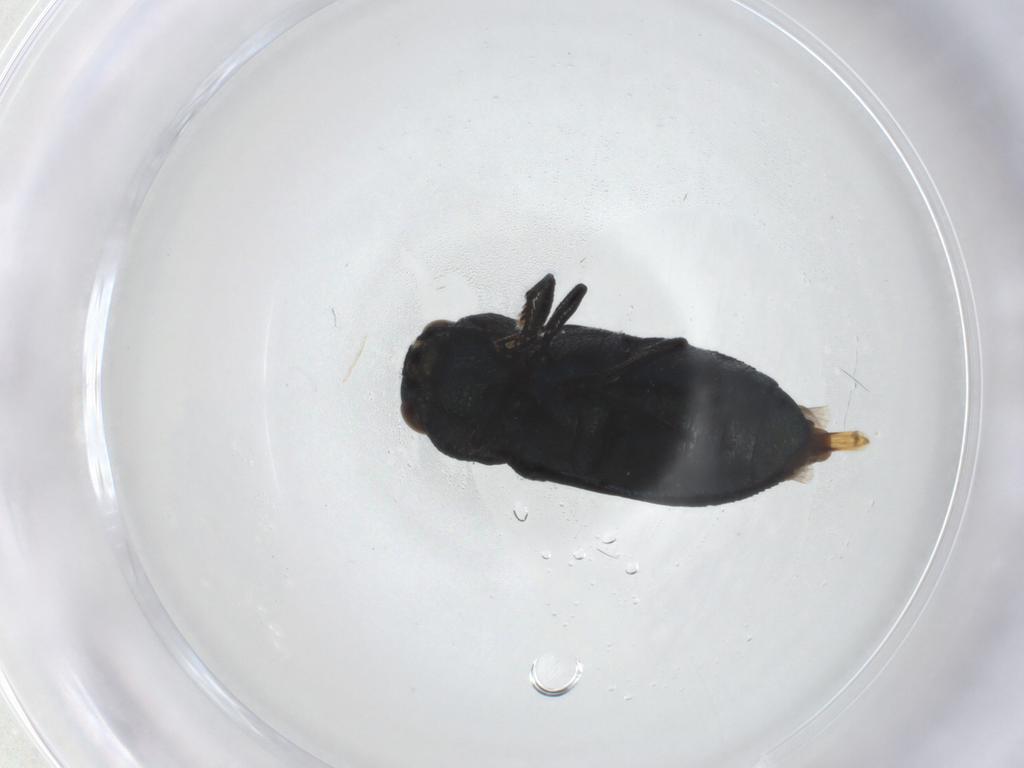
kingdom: Animalia
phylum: Arthropoda
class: Insecta
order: Coleoptera
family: Buprestidae
